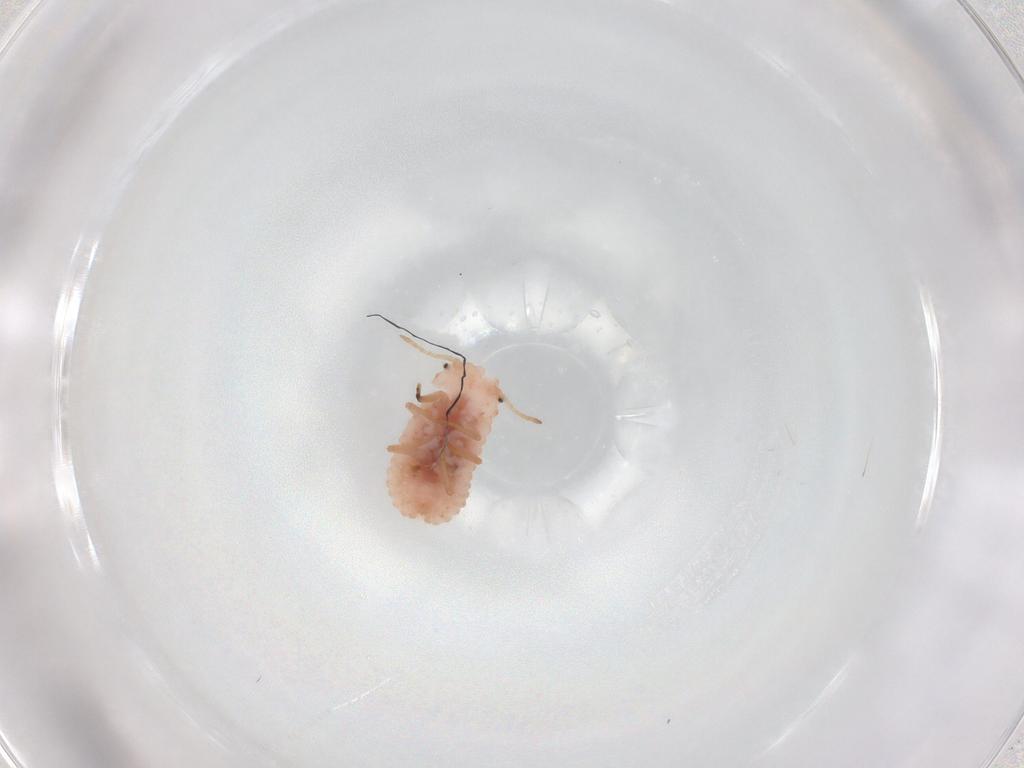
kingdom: Animalia
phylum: Arthropoda
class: Insecta
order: Hemiptera
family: Coccoidea_incertae_sedis
